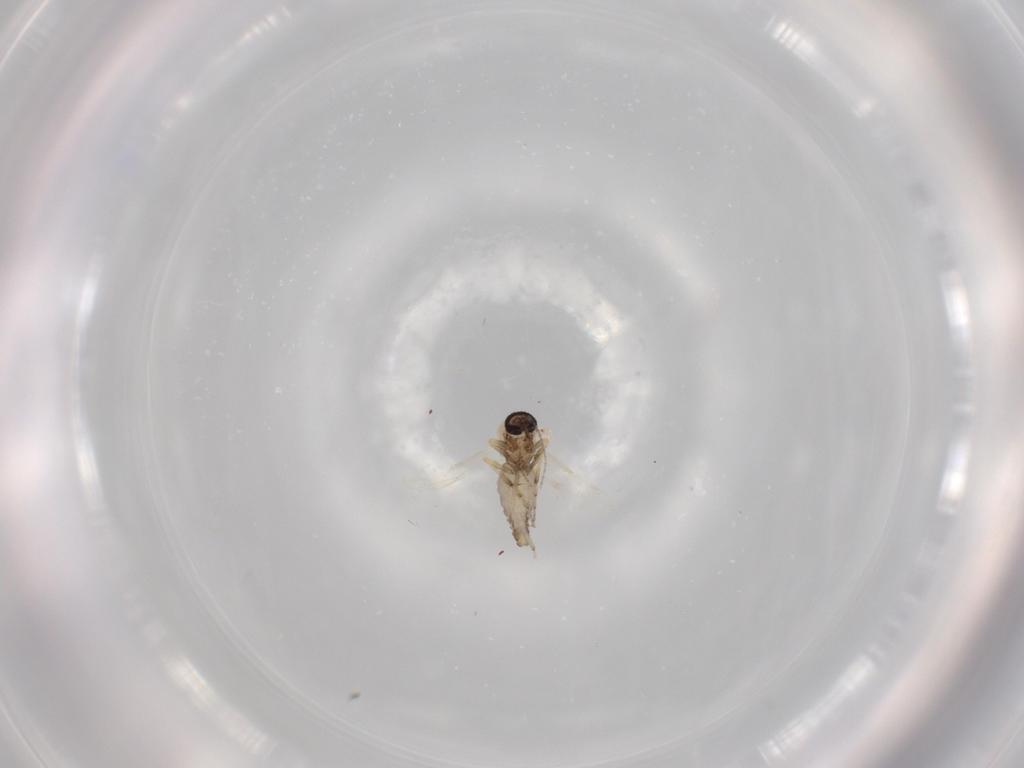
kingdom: Animalia
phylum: Arthropoda
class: Insecta
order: Diptera
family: Ceratopogonidae
